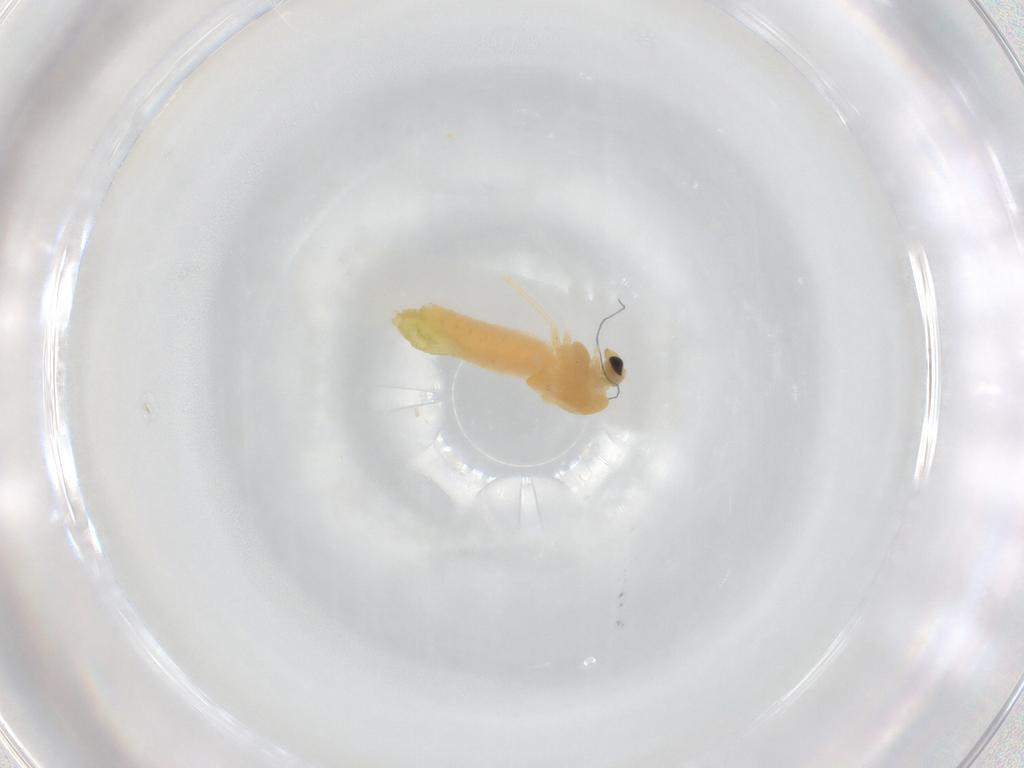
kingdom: Animalia
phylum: Arthropoda
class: Insecta
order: Diptera
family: Chironomidae
